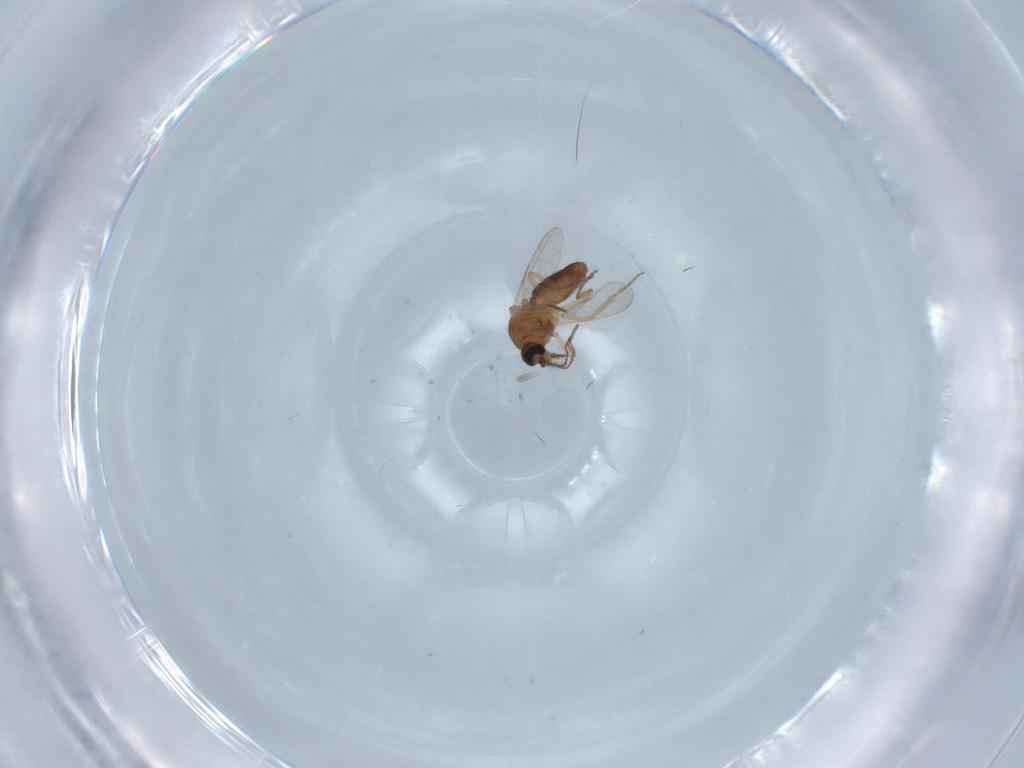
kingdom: Animalia
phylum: Arthropoda
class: Insecta
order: Diptera
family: Ceratopogonidae
